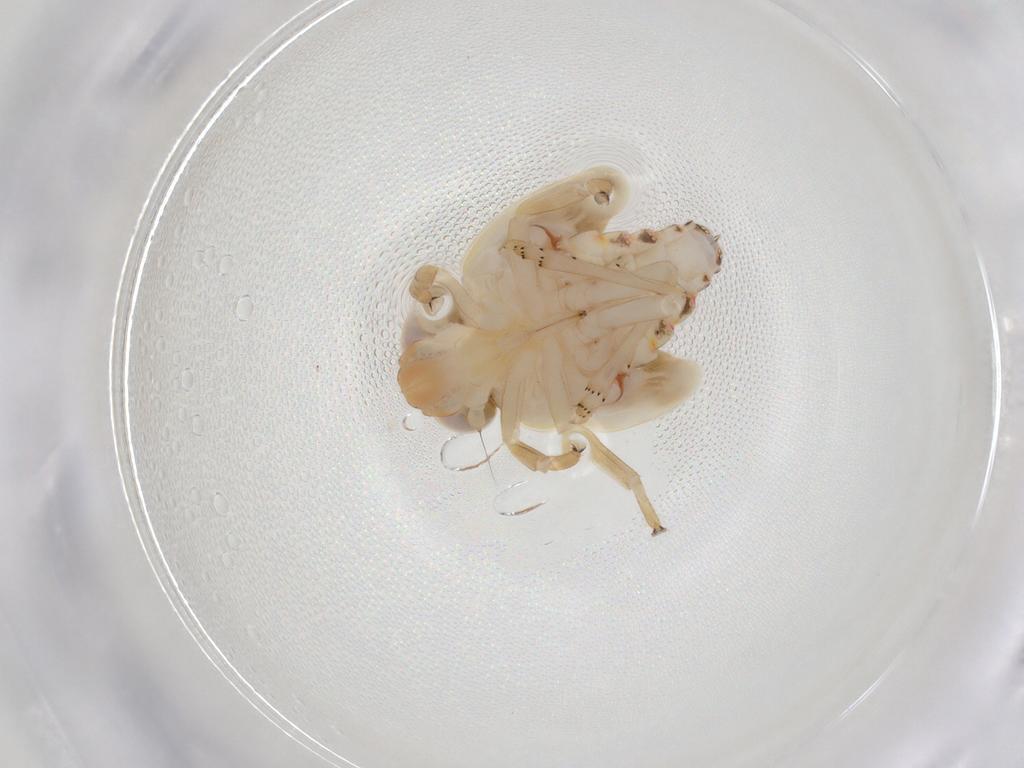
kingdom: Animalia
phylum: Arthropoda
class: Insecta
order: Hemiptera
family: Nogodinidae
